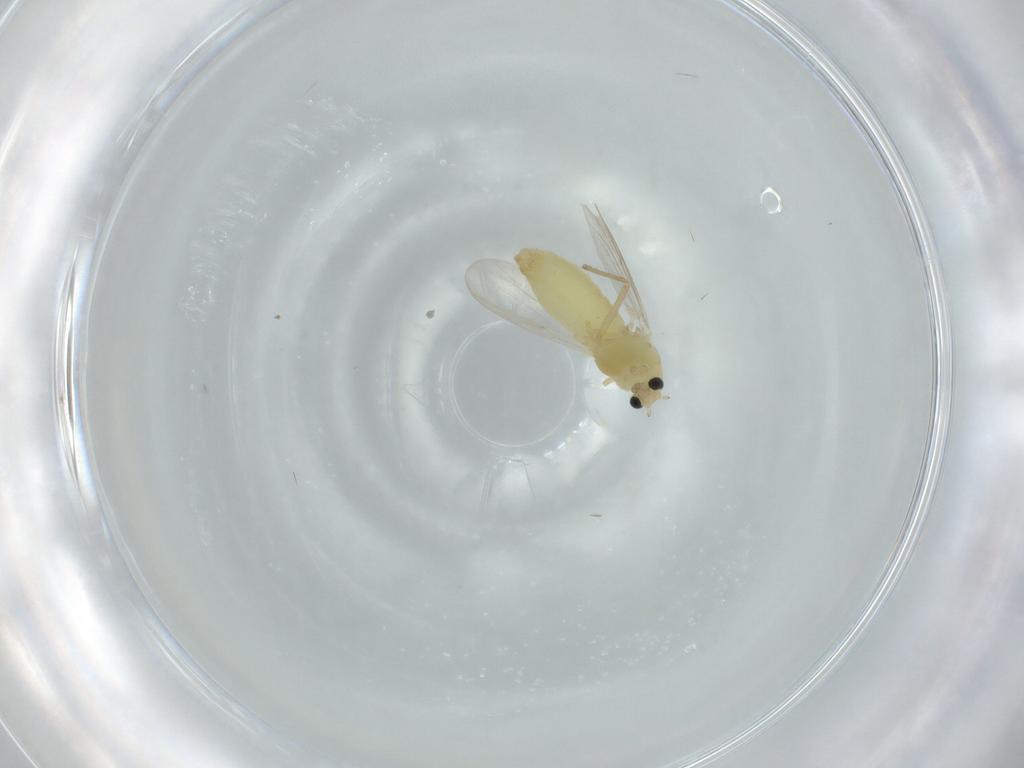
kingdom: Animalia
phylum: Arthropoda
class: Insecta
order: Diptera
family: Chironomidae
